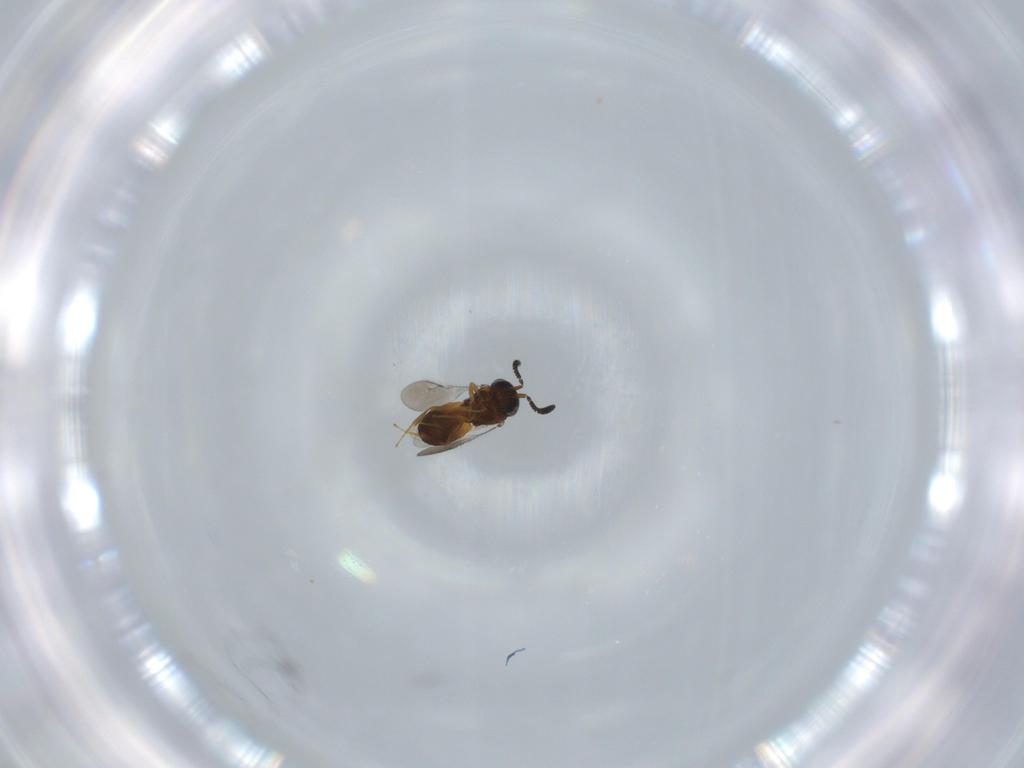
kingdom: Animalia
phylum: Arthropoda
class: Insecta
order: Hymenoptera
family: Scelionidae
